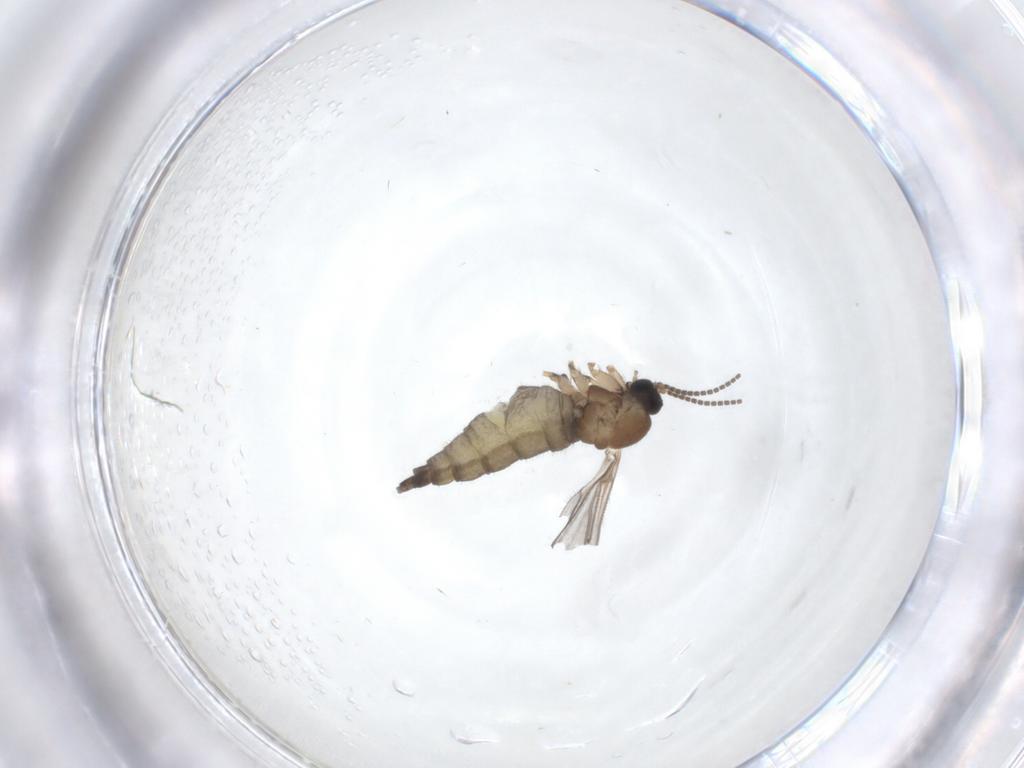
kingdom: Animalia
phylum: Arthropoda
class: Insecta
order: Diptera
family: Sciaridae
